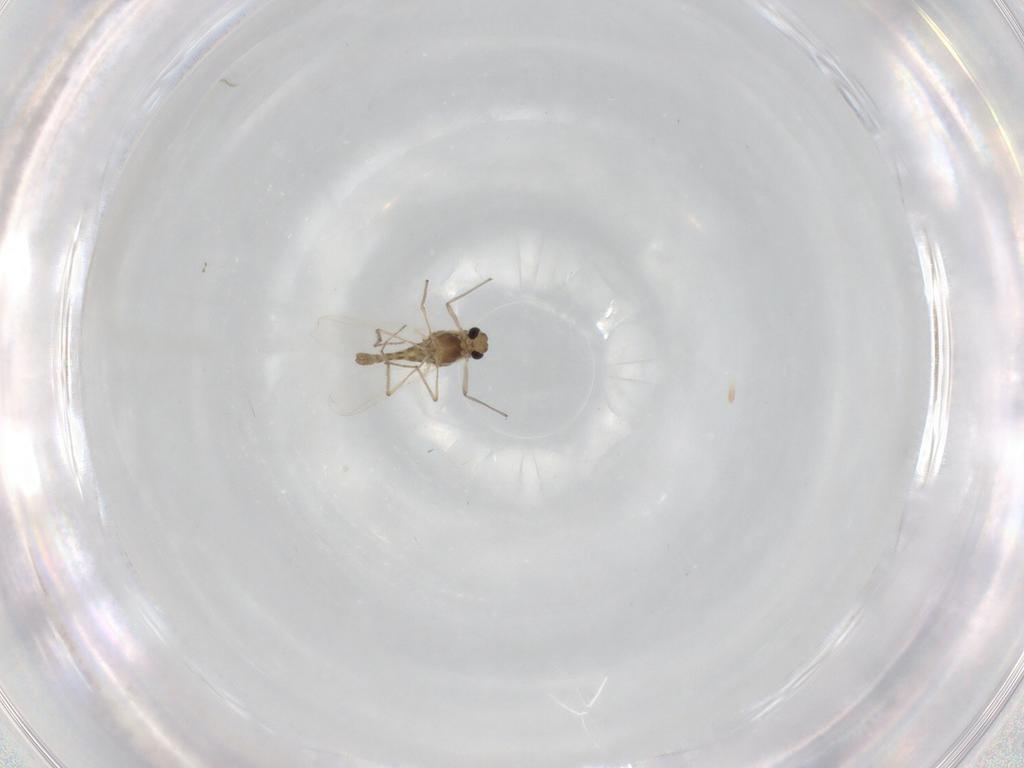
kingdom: Animalia
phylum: Arthropoda
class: Insecta
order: Diptera
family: Chironomidae
